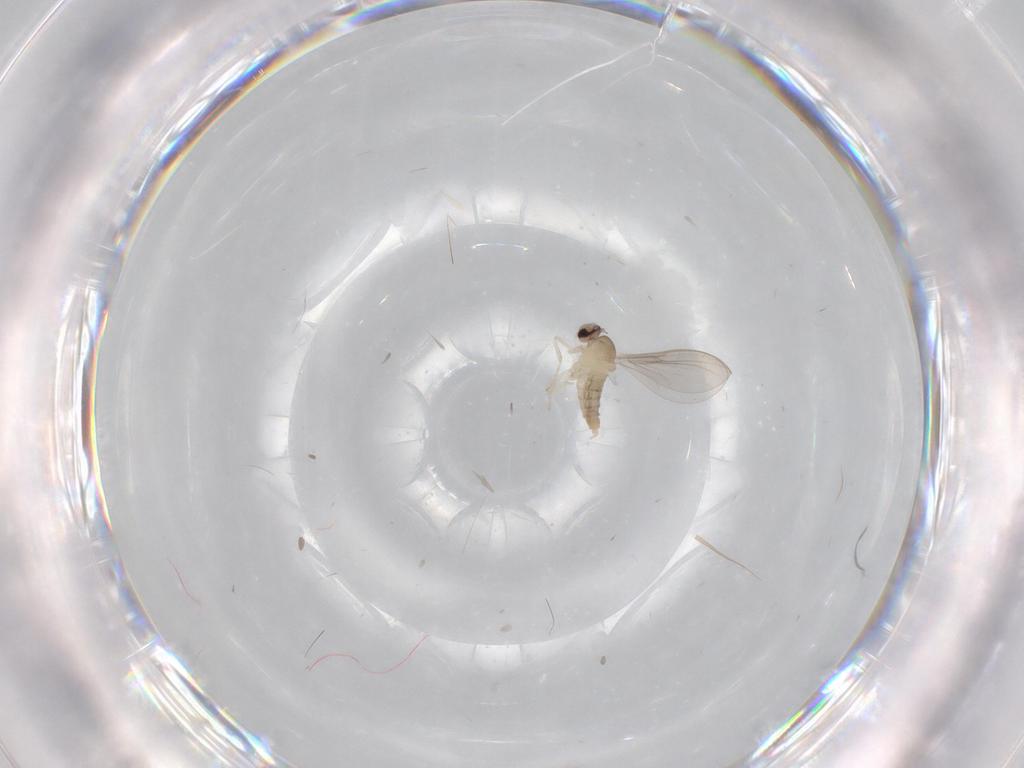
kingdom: Animalia
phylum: Arthropoda
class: Insecta
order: Diptera
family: Cecidomyiidae
